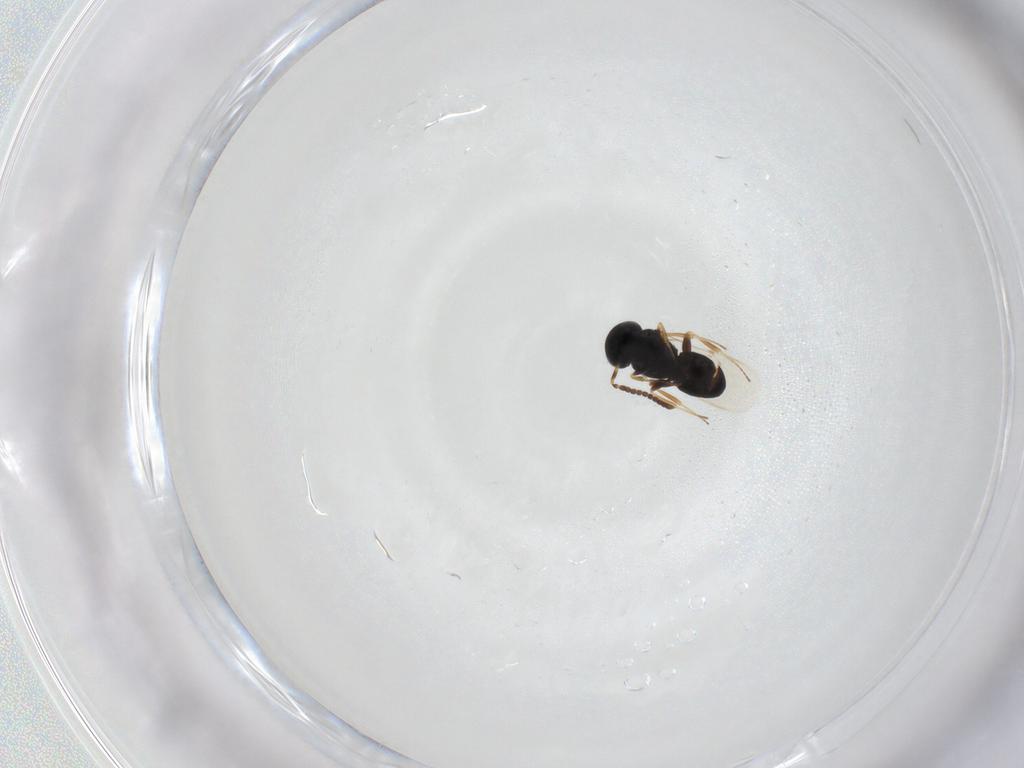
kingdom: Animalia
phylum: Arthropoda
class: Insecta
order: Hymenoptera
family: Scelionidae
